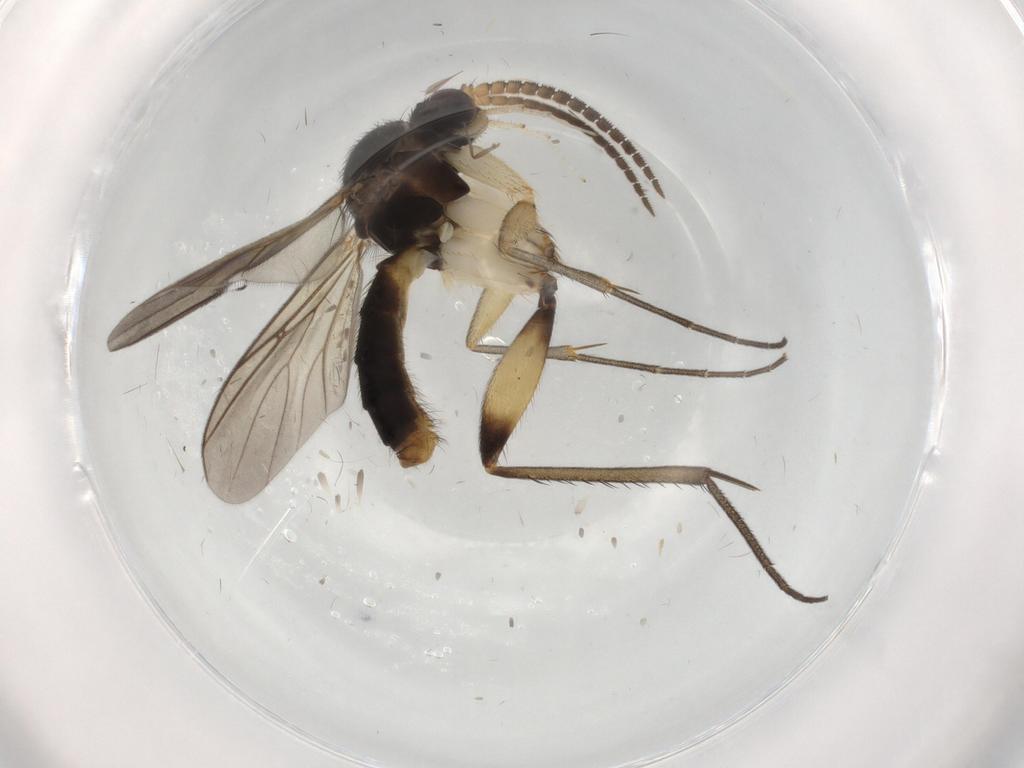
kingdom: Animalia
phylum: Arthropoda
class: Insecta
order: Diptera
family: Scatopsidae
